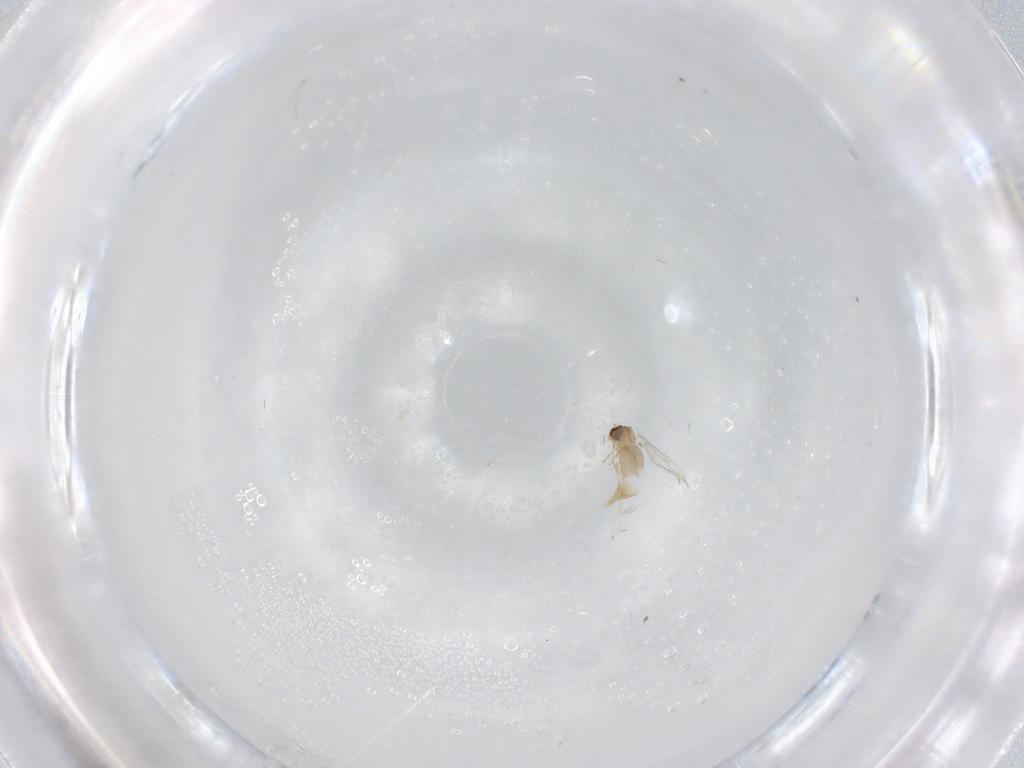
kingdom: Animalia
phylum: Arthropoda
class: Insecta
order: Diptera
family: Cecidomyiidae
